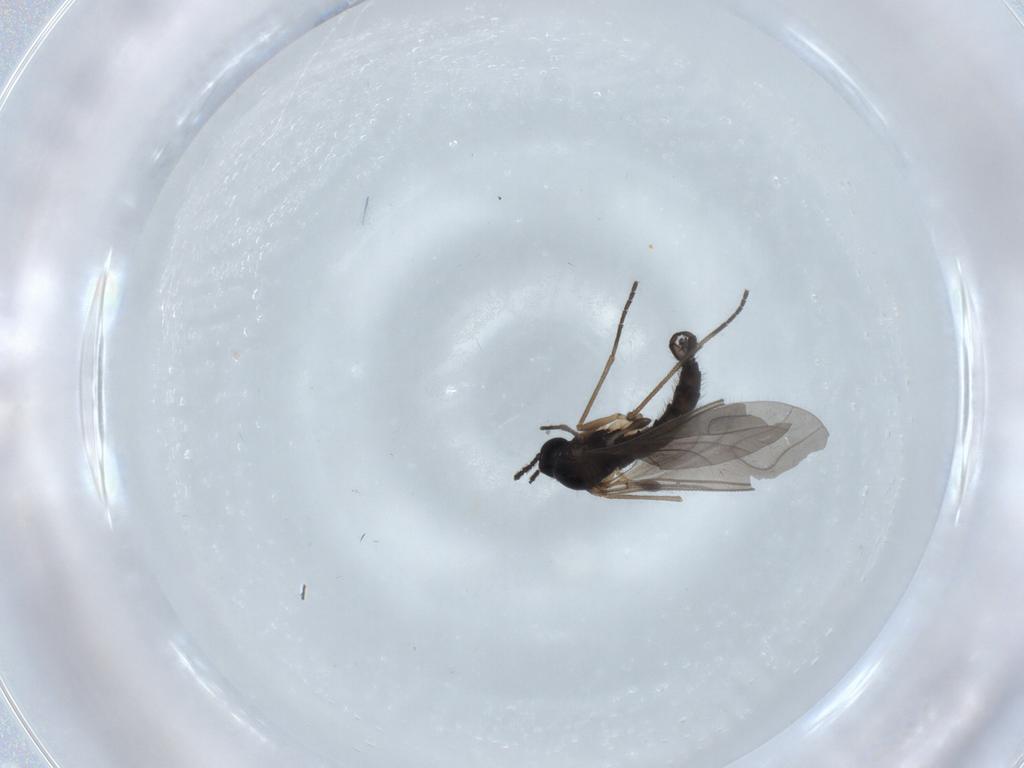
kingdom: Animalia
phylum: Arthropoda
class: Insecta
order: Diptera
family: Sciaridae
